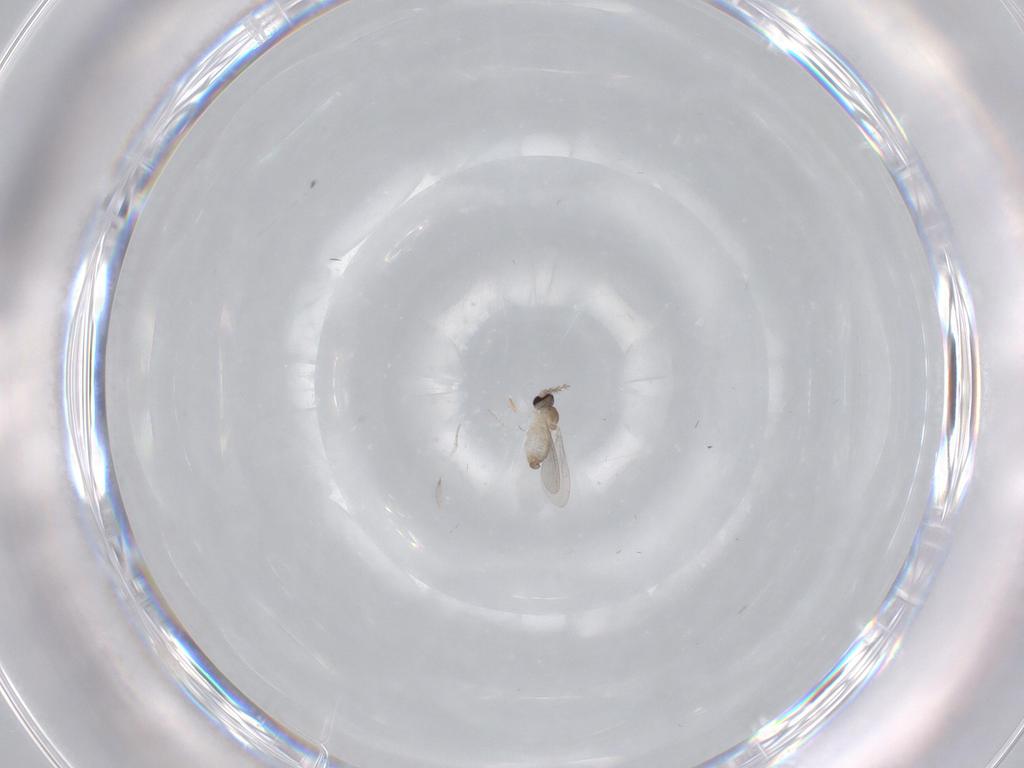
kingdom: Animalia
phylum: Arthropoda
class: Insecta
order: Diptera
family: Cecidomyiidae
